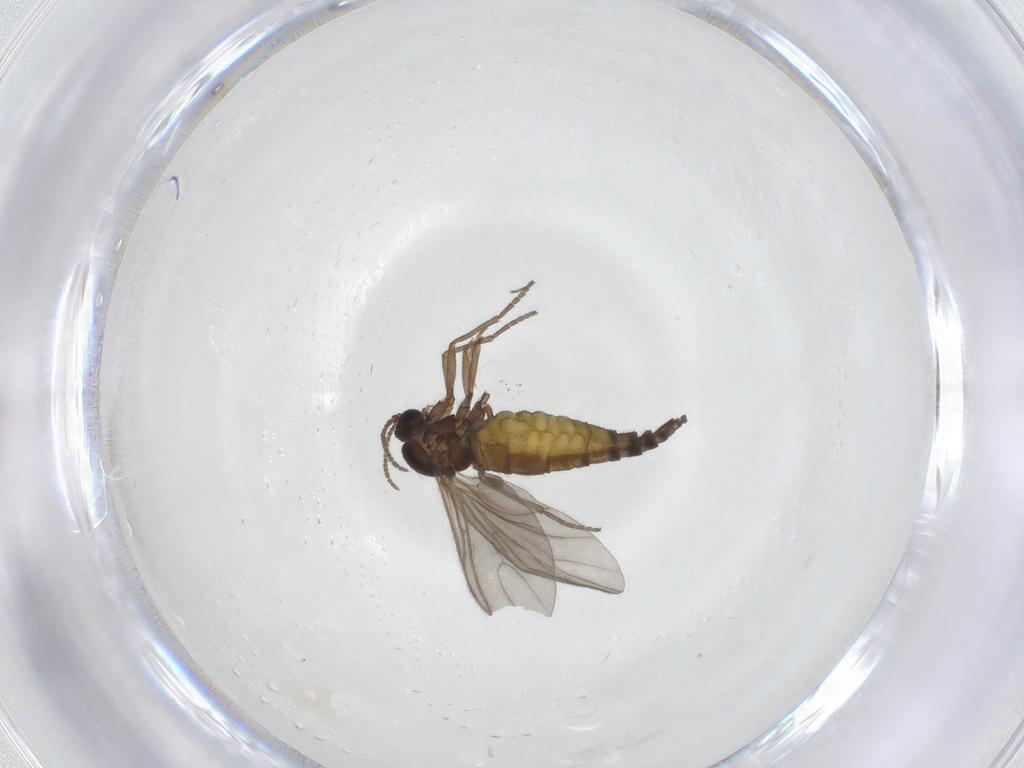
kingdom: Animalia
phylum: Arthropoda
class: Insecta
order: Diptera
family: Sciaridae
